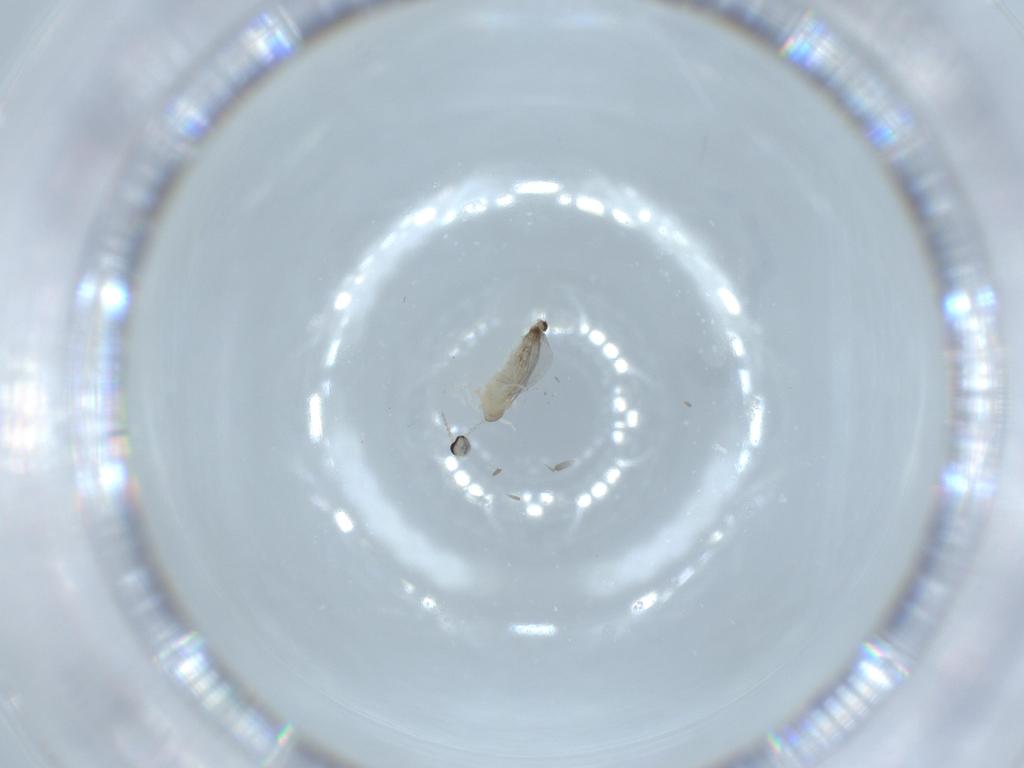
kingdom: Animalia
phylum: Arthropoda
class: Insecta
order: Diptera
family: Cecidomyiidae
